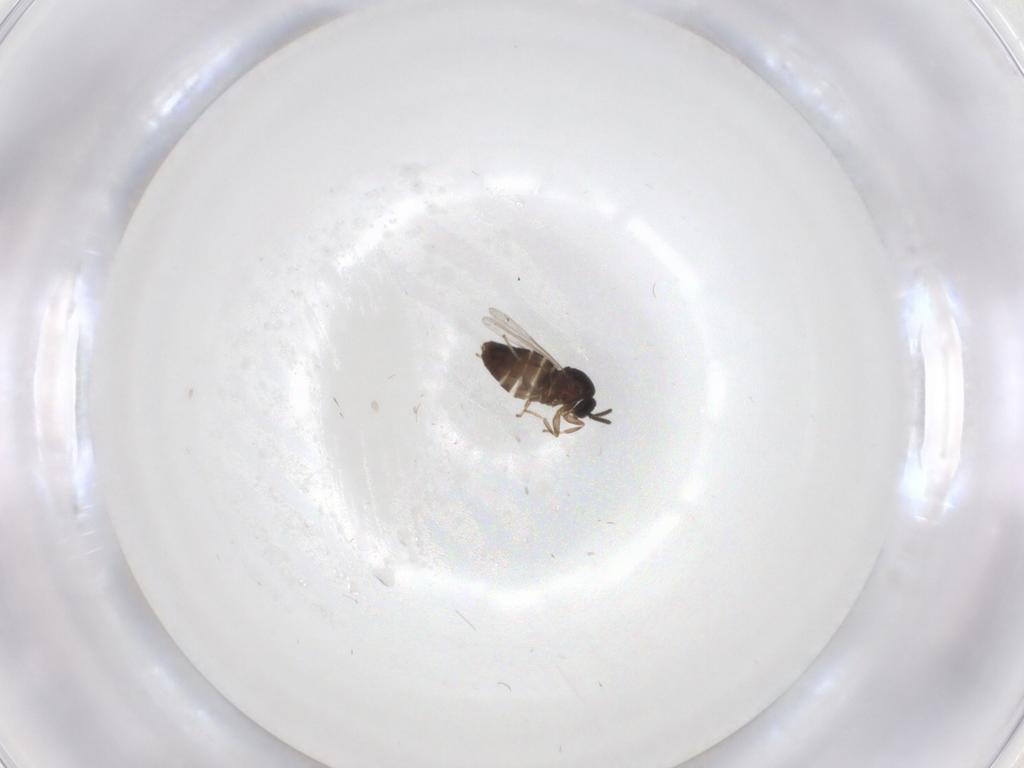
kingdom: Animalia
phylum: Arthropoda
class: Insecta
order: Diptera
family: Scatopsidae
